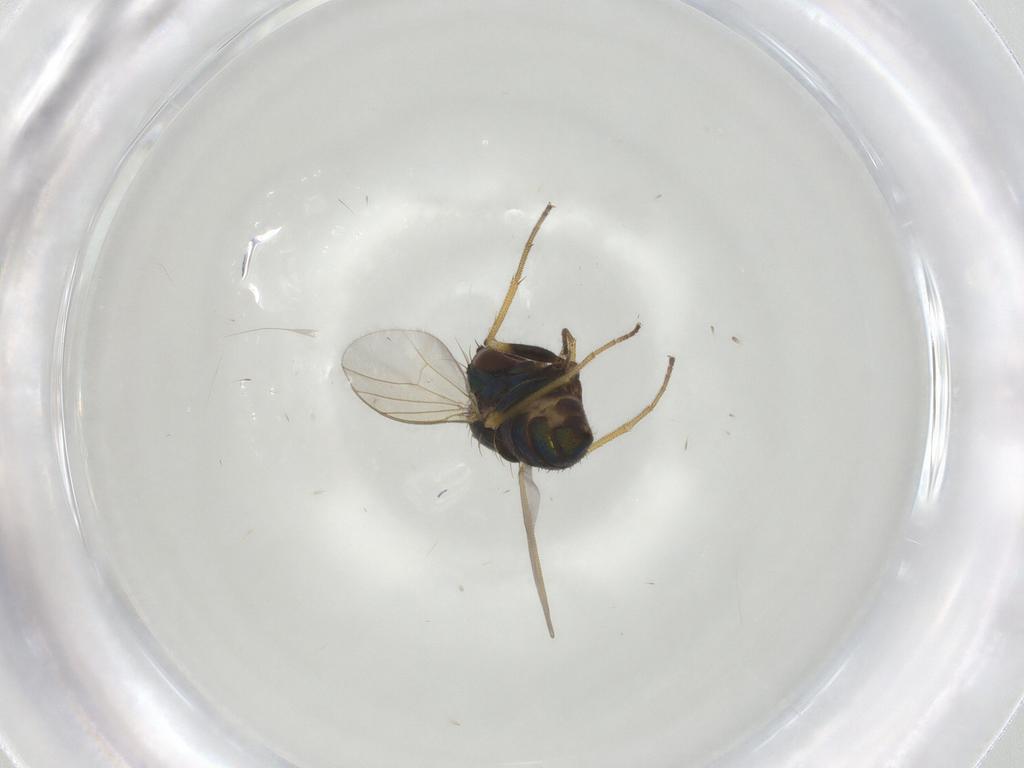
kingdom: Animalia
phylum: Arthropoda
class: Insecta
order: Diptera
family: Dolichopodidae
